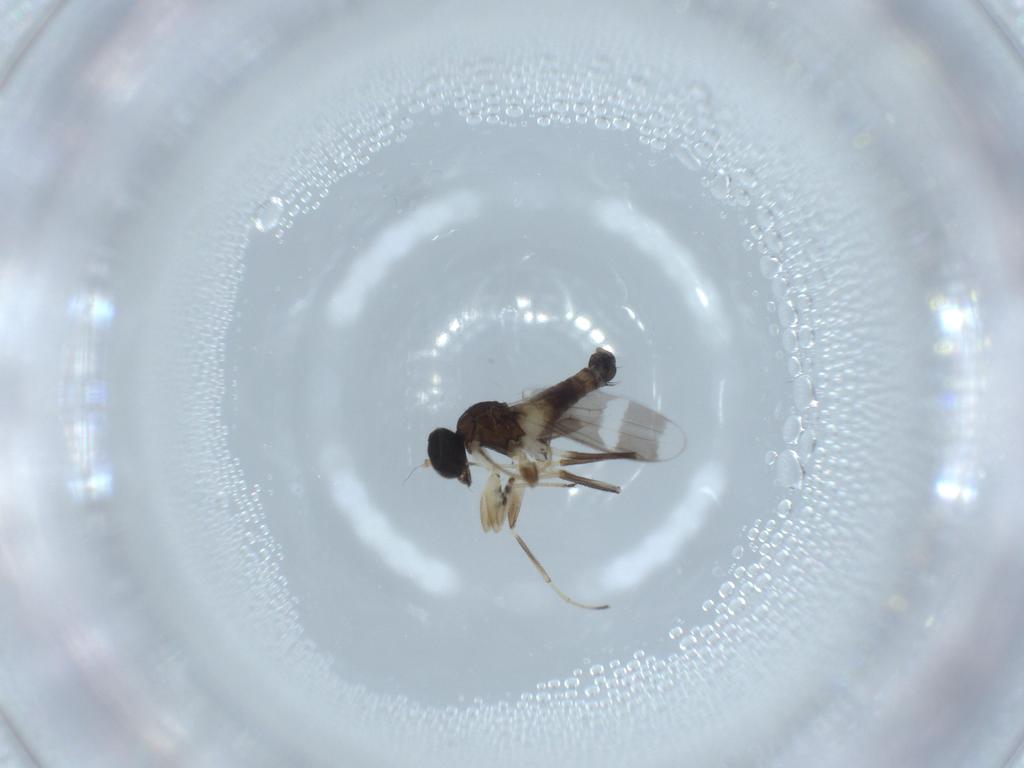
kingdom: Animalia
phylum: Arthropoda
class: Insecta
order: Diptera
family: Hybotidae
